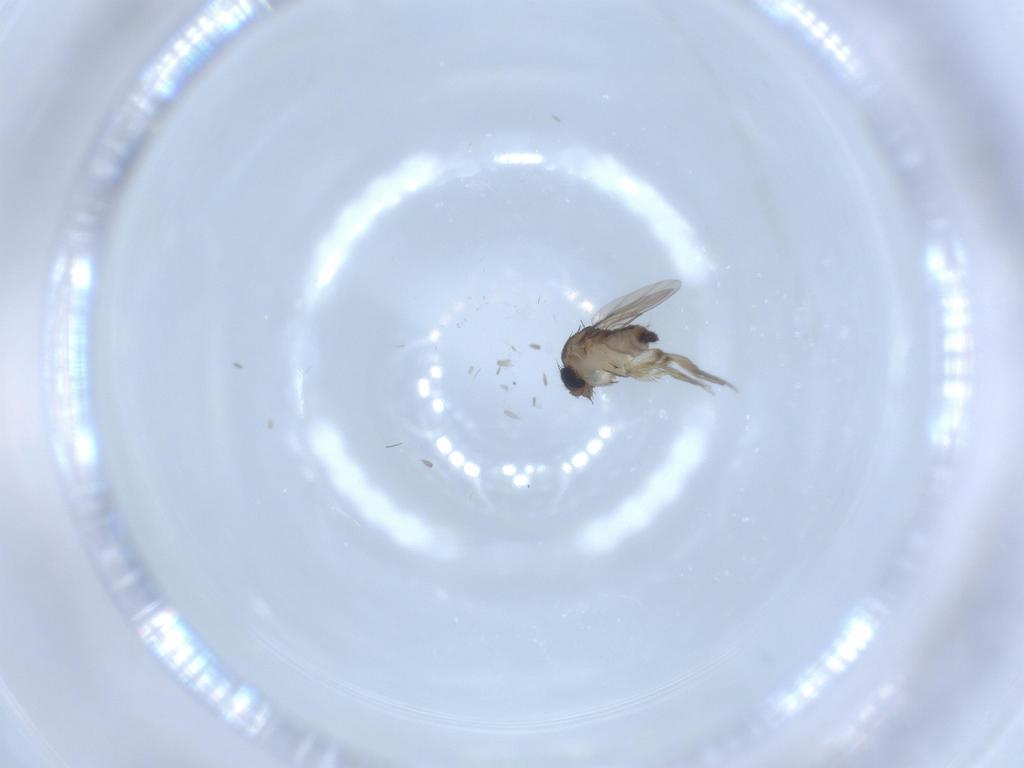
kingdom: Animalia
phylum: Arthropoda
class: Insecta
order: Diptera
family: Phoridae
